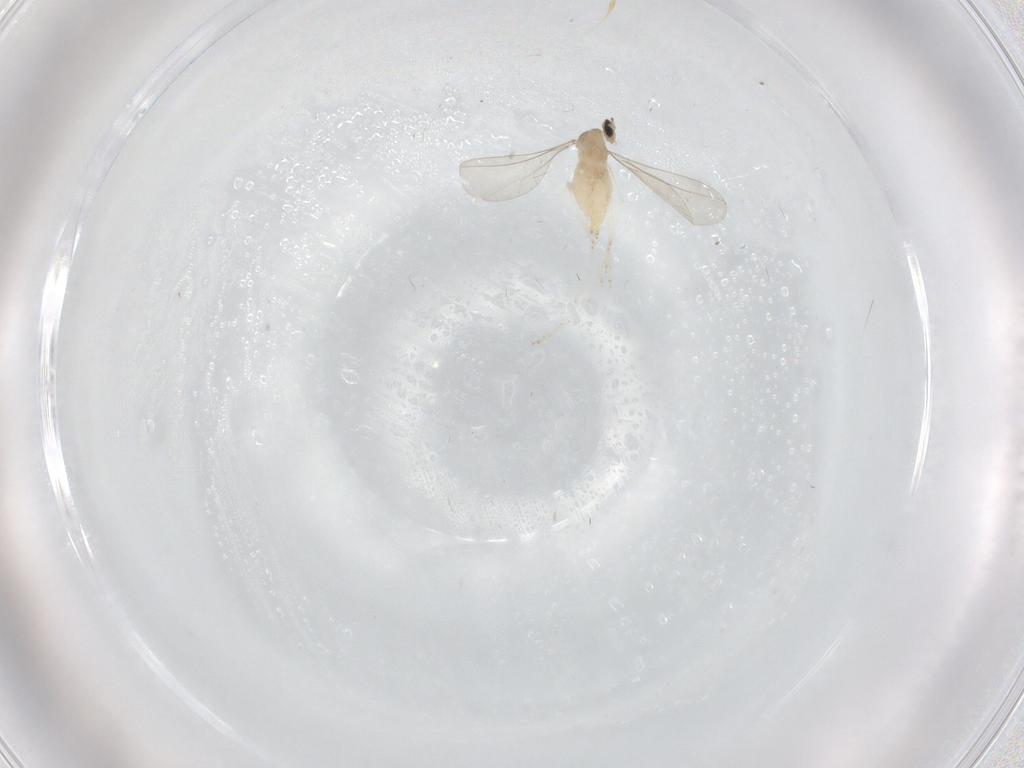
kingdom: Animalia
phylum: Arthropoda
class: Insecta
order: Diptera
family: Cecidomyiidae
